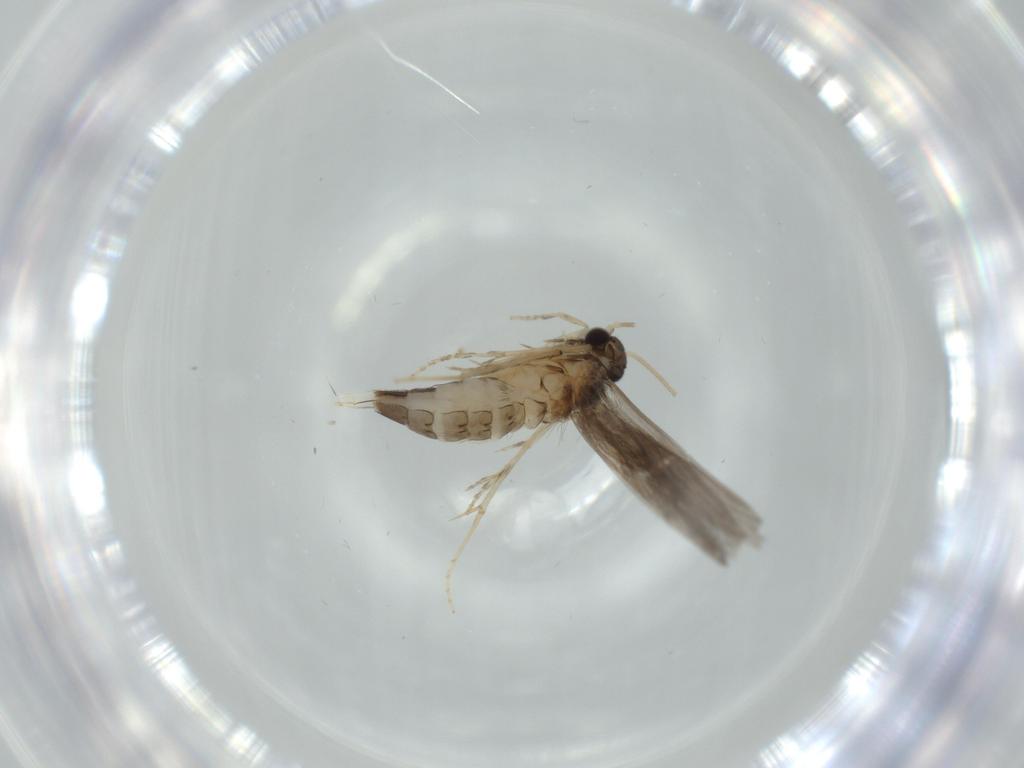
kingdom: Animalia
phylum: Arthropoda
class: Insecta
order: Trichoptera
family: Hydroptilidae
